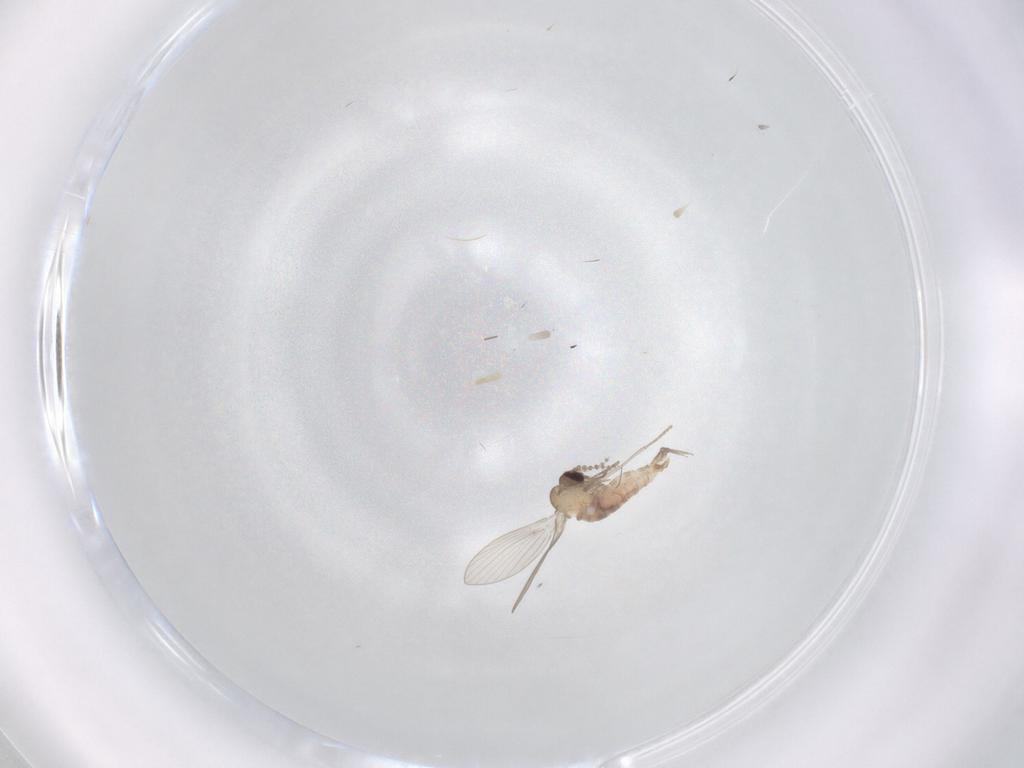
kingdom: Animalia
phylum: Arthropoda
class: Insecta
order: Diptera
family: Psychodidae
